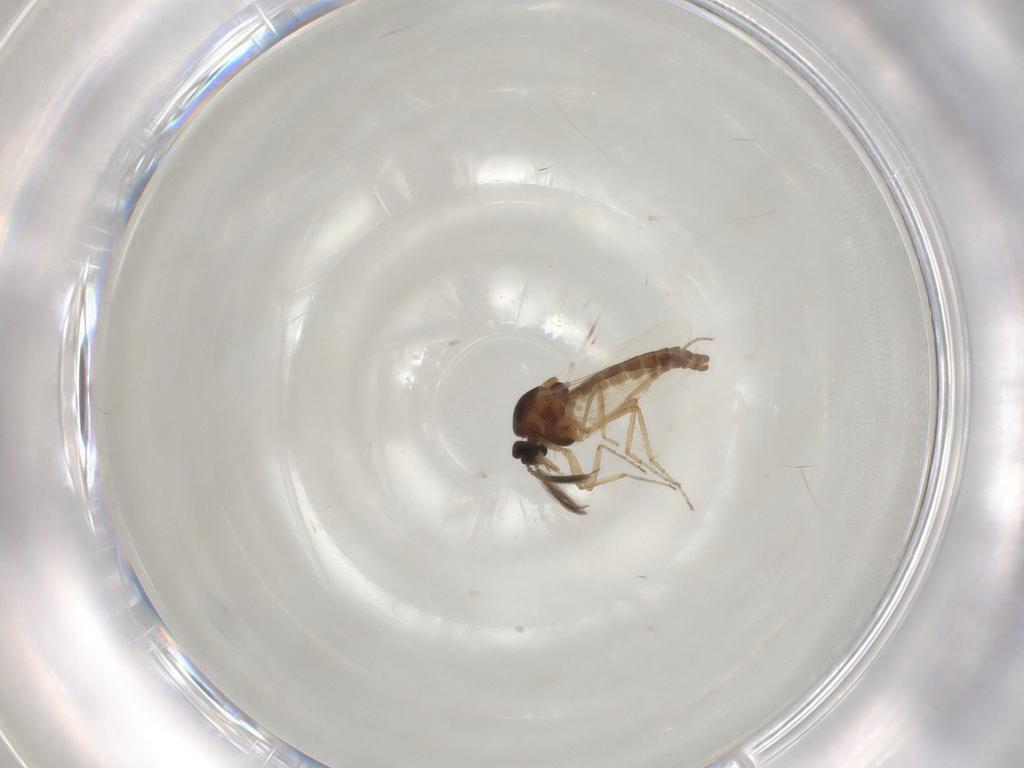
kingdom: Animalia
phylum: Arthropoda
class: Insecta
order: Diptera
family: Ceratopogonidae
